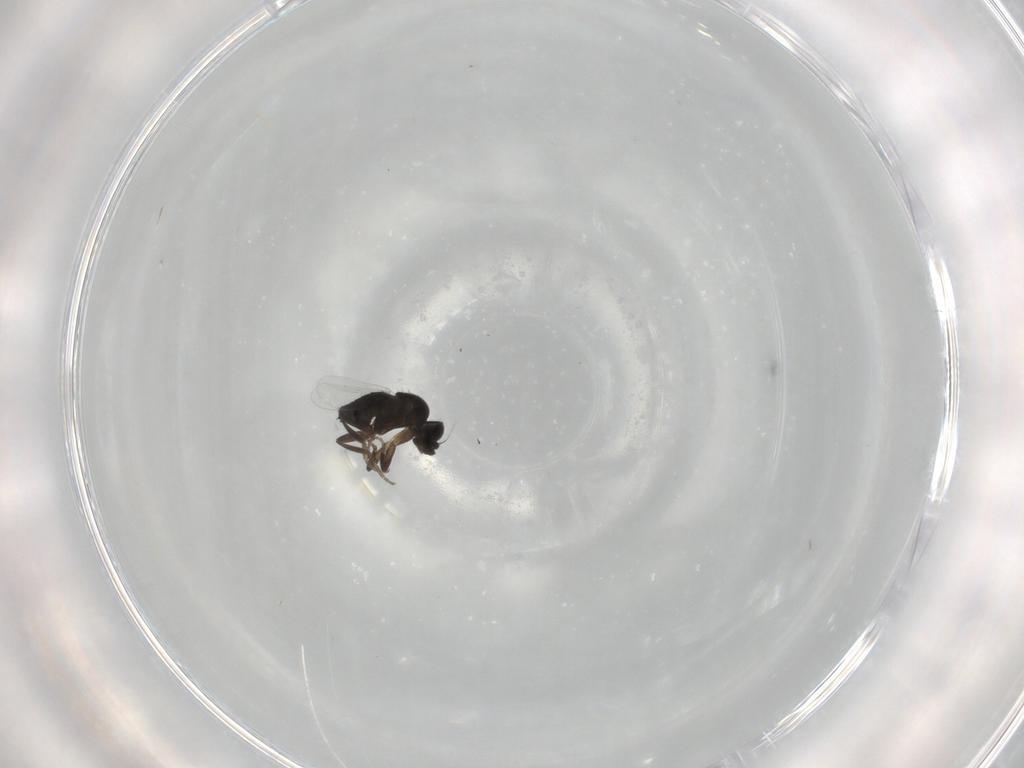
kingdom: Animalia
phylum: Arthropoda
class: Insecta
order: Diptera
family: Phoridae
